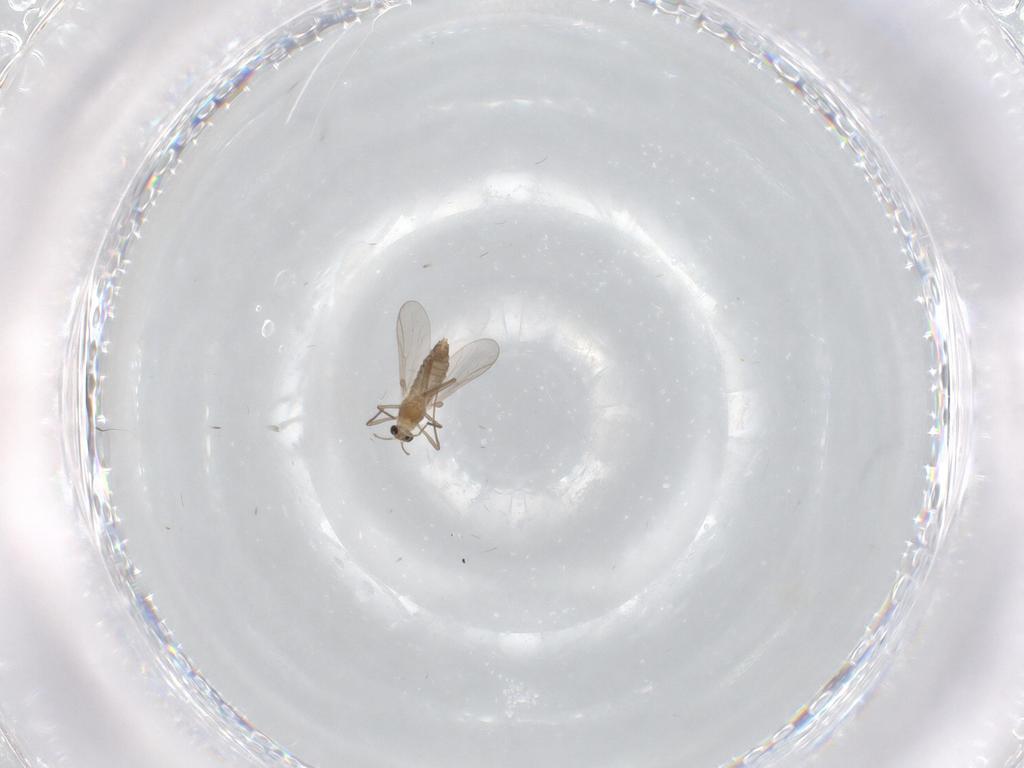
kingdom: Animalia
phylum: Arthropoda
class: Insecta
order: Diptera
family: Chironomidae
